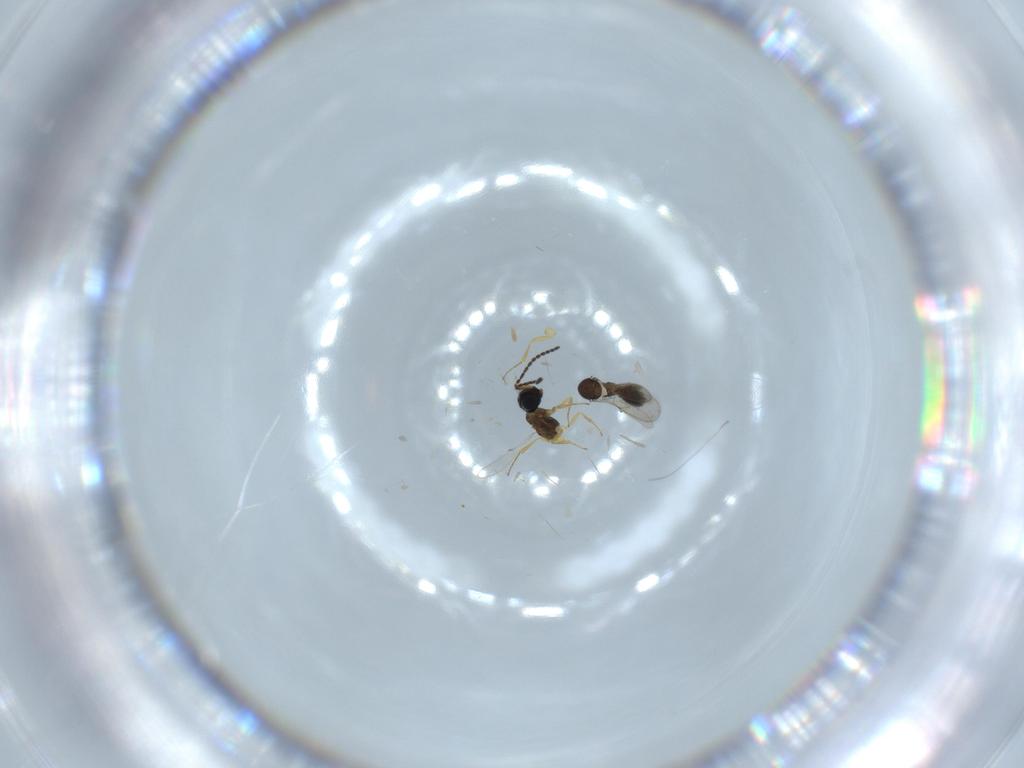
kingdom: Animalia
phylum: Arthropoda
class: Insecta
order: Hymenoptera
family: Scelionidae
